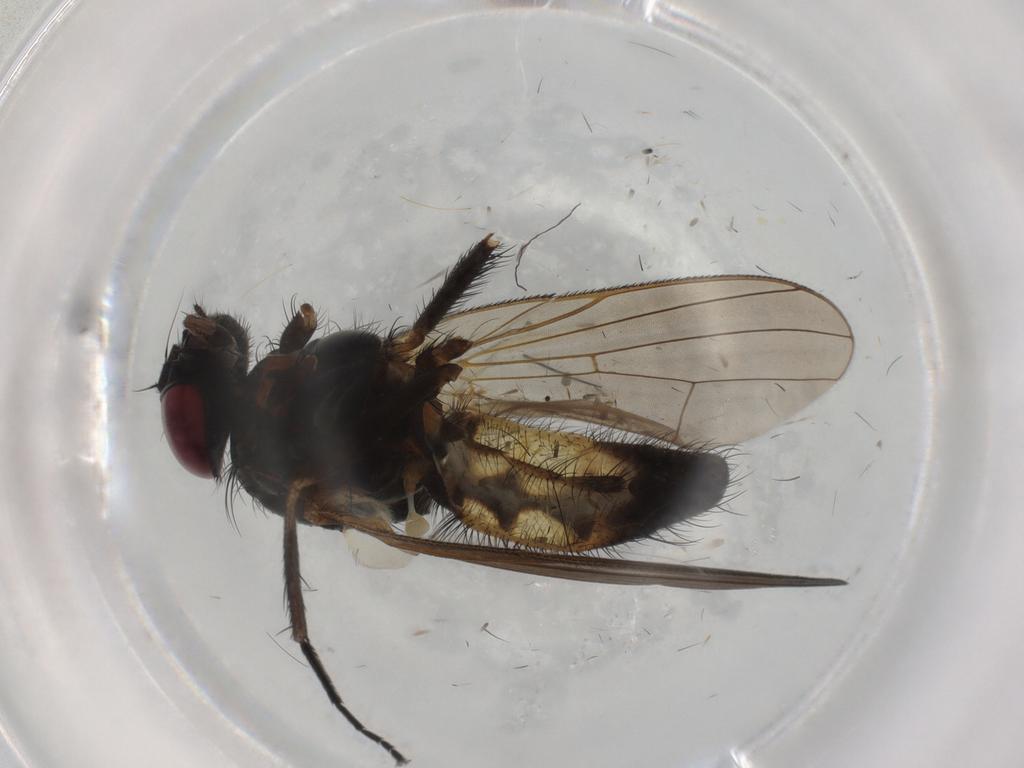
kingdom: Animalia
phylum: Arthropoda
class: Insecta
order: Diptera
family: Fannia
